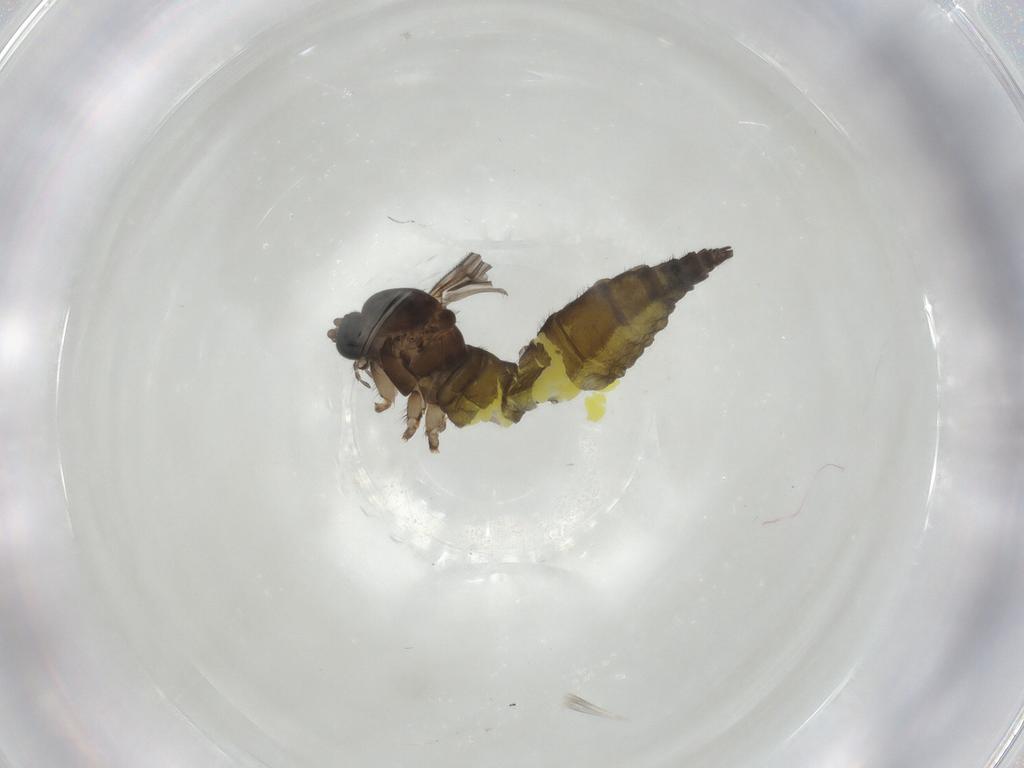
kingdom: Animalia
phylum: Arthropoda
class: Insecta
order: Diptera
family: Sciaridae
